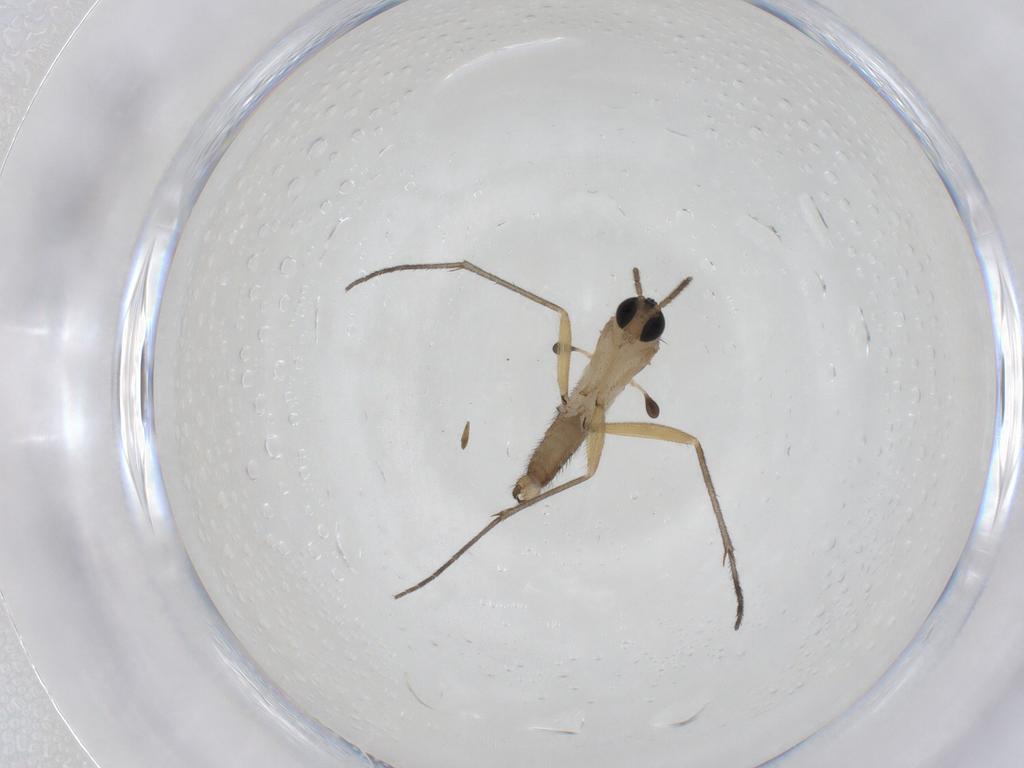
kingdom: Animalia
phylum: Arthropoda
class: Insecta
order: Diptera
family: Sciaridae
